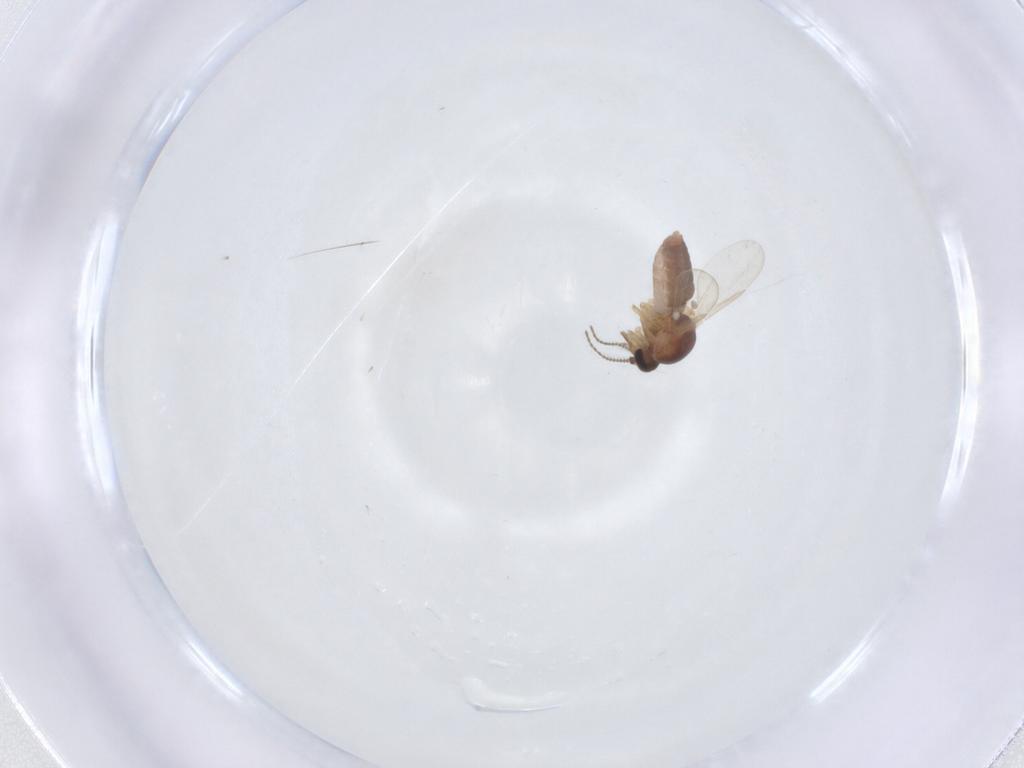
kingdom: Animalia
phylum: Arthropoda
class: Insecta
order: Diptera
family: Ceratopogonidae
